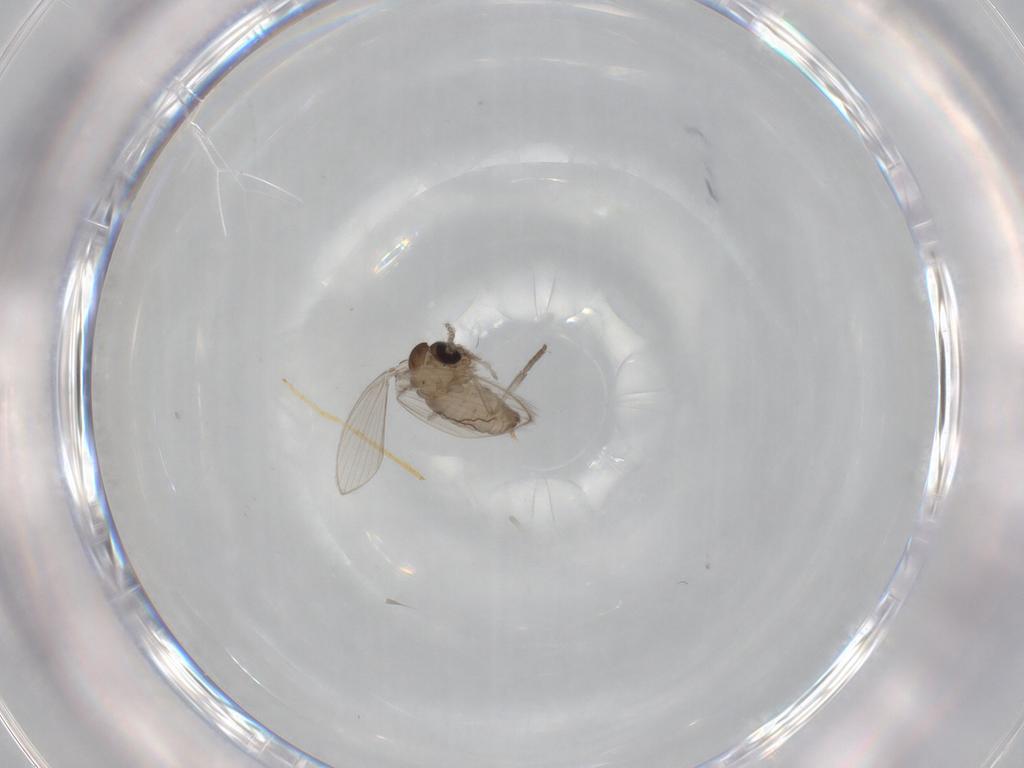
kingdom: Animalia
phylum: Arthropoda
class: Insecta
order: Diptera
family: Psychodidae
